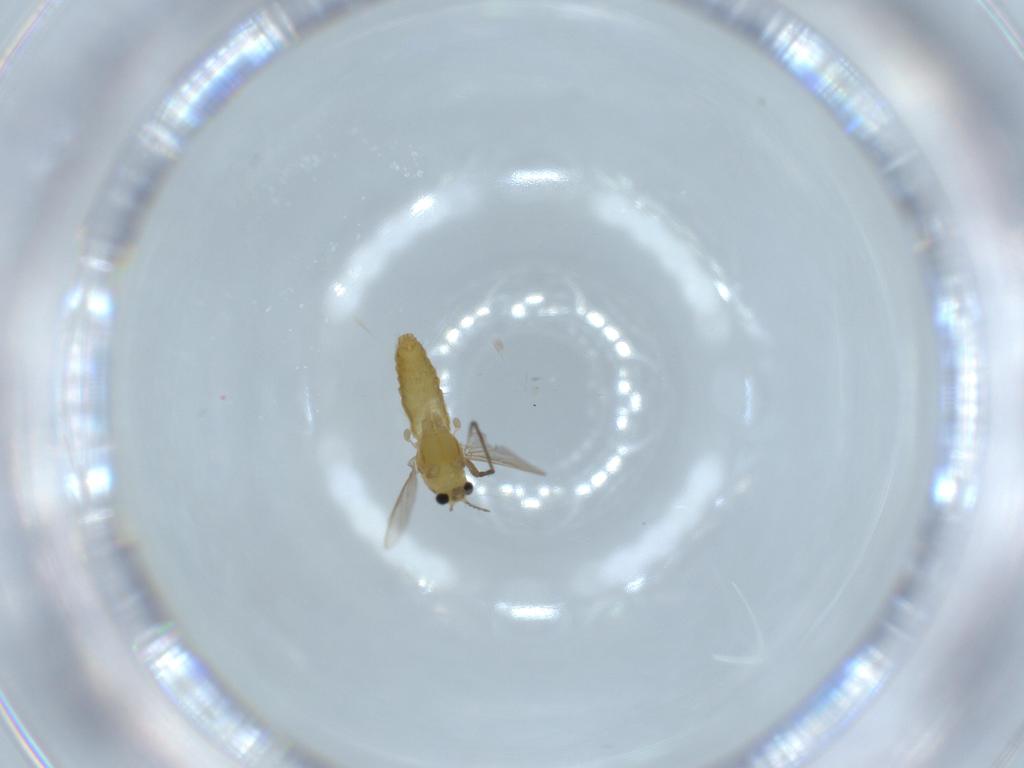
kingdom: Animalia
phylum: Arthropoda
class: Insecta
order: Diptera
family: Chironomidae
